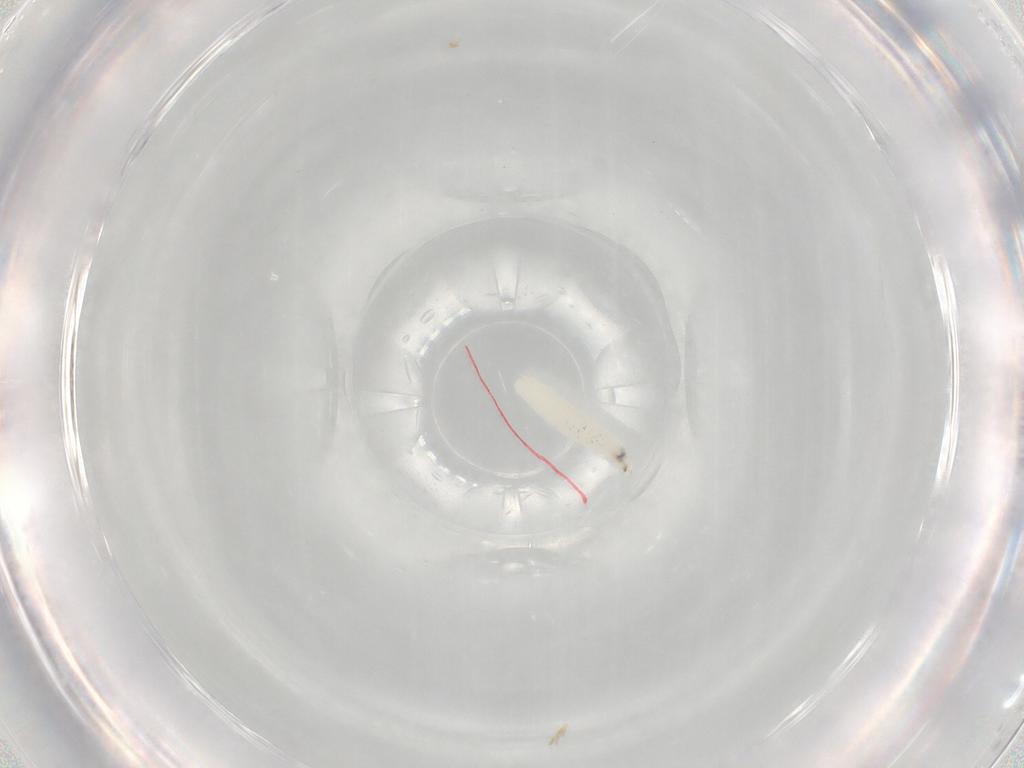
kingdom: Animalia
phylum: Arthropoda
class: Insecta
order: Diptera
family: Sarcophagidae
